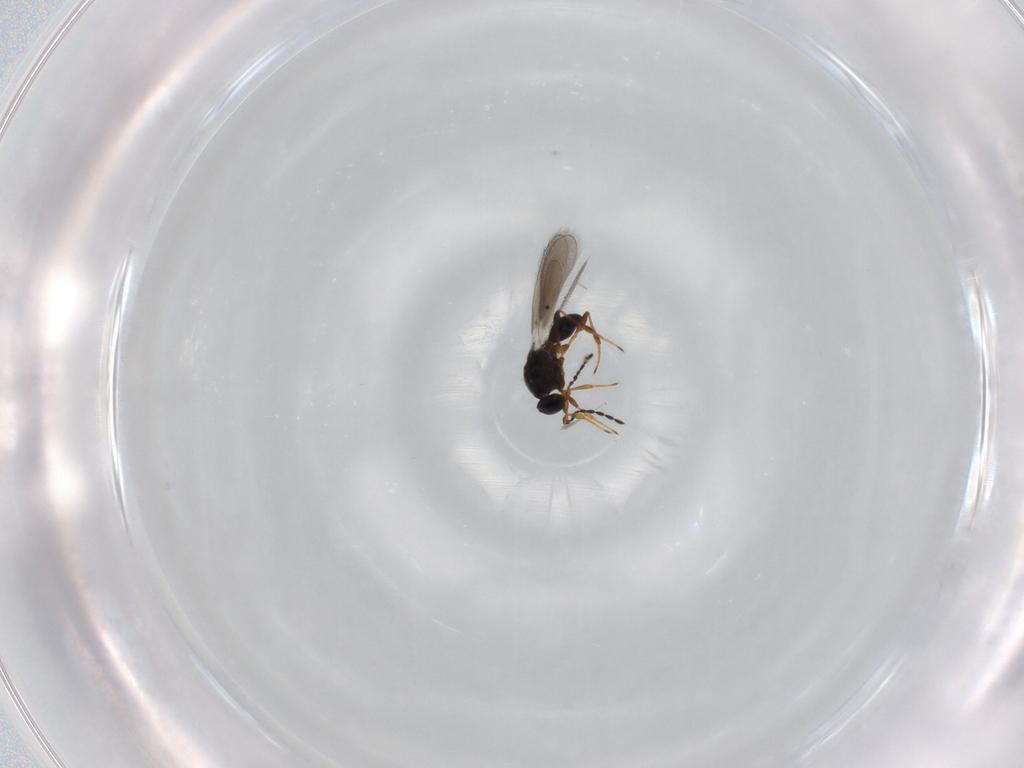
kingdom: Animalia
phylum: Arthropoda
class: Insecta
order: Hymenoptera
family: Platygastridae
